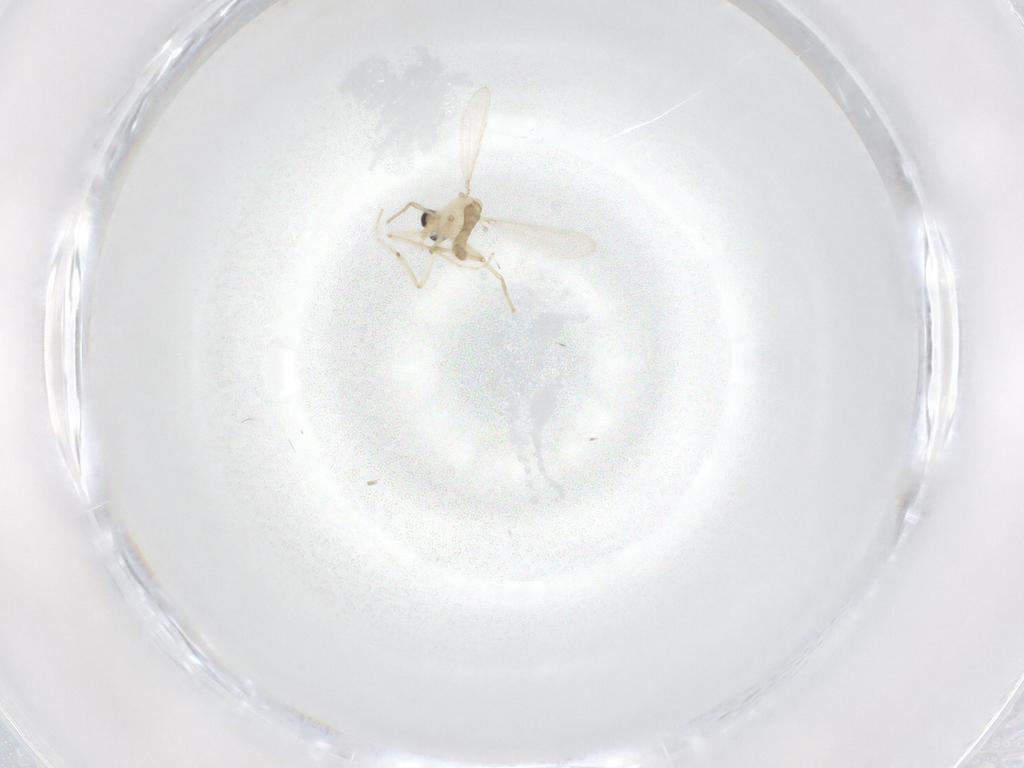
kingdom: Animalia
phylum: Arthropoda
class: Insecta
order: Diptera
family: Chironomidae
